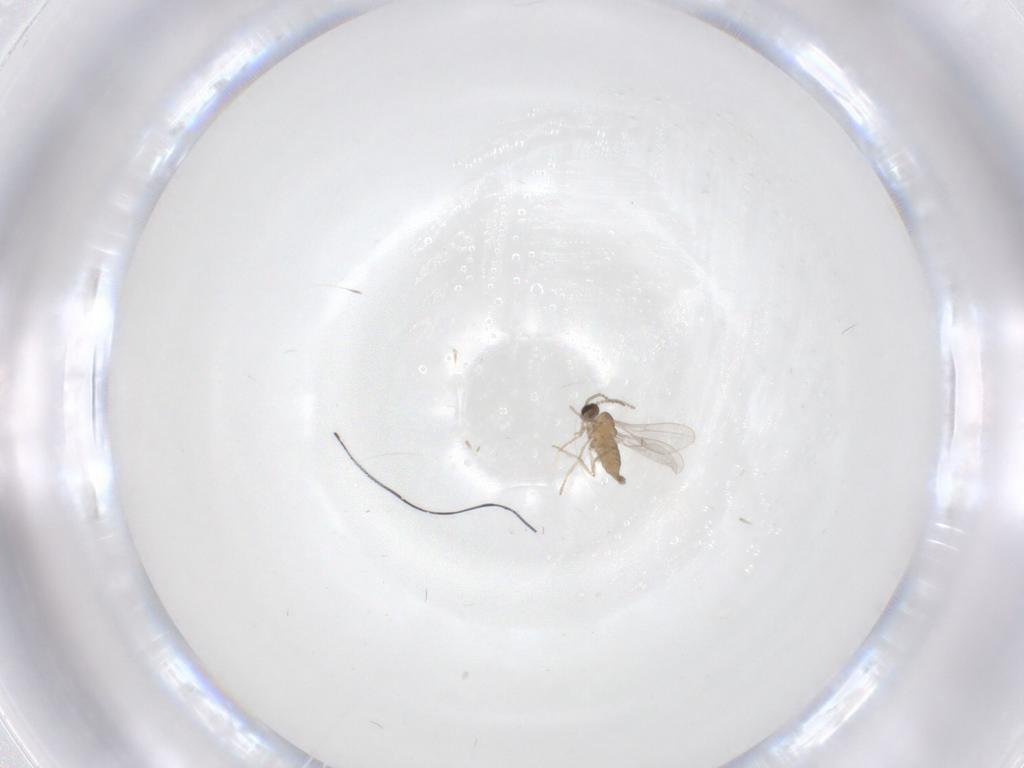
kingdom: Animalia
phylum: Arthropoda
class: Insecta
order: Diptera
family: Cecidomyiidae
